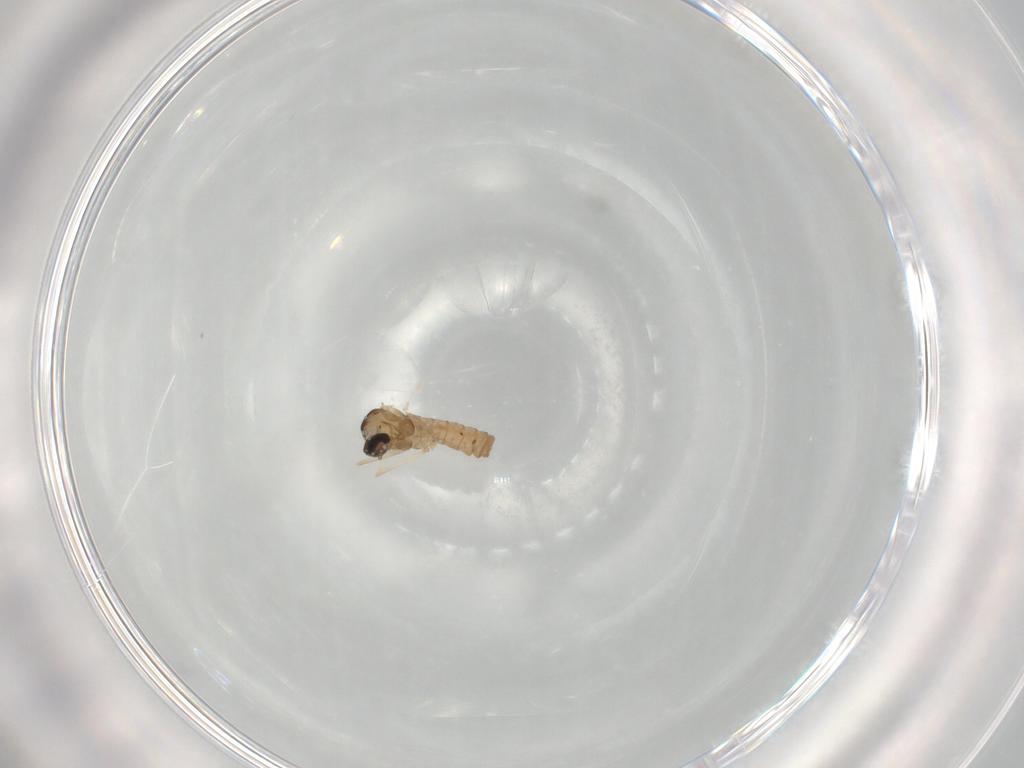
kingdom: Animalia
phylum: Arthropoda
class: Insecta
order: Diptera
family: Cecidomyiidae
